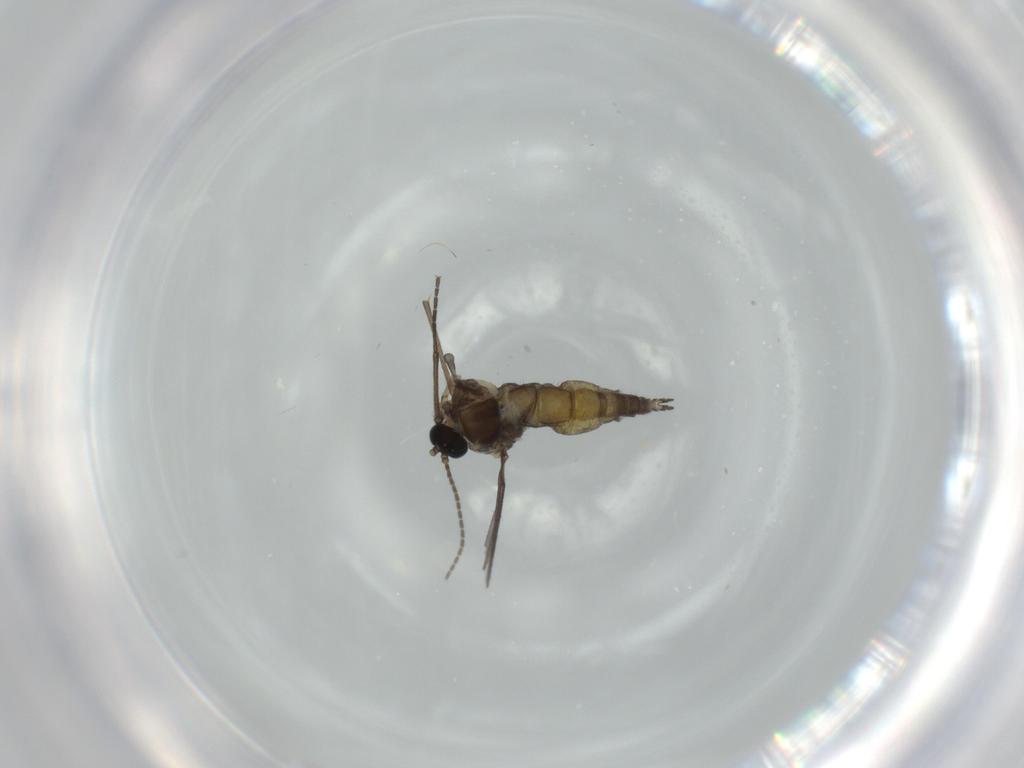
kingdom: Animalia
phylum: Arthropoda
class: Insecta
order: Diptera
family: Sciaridae
